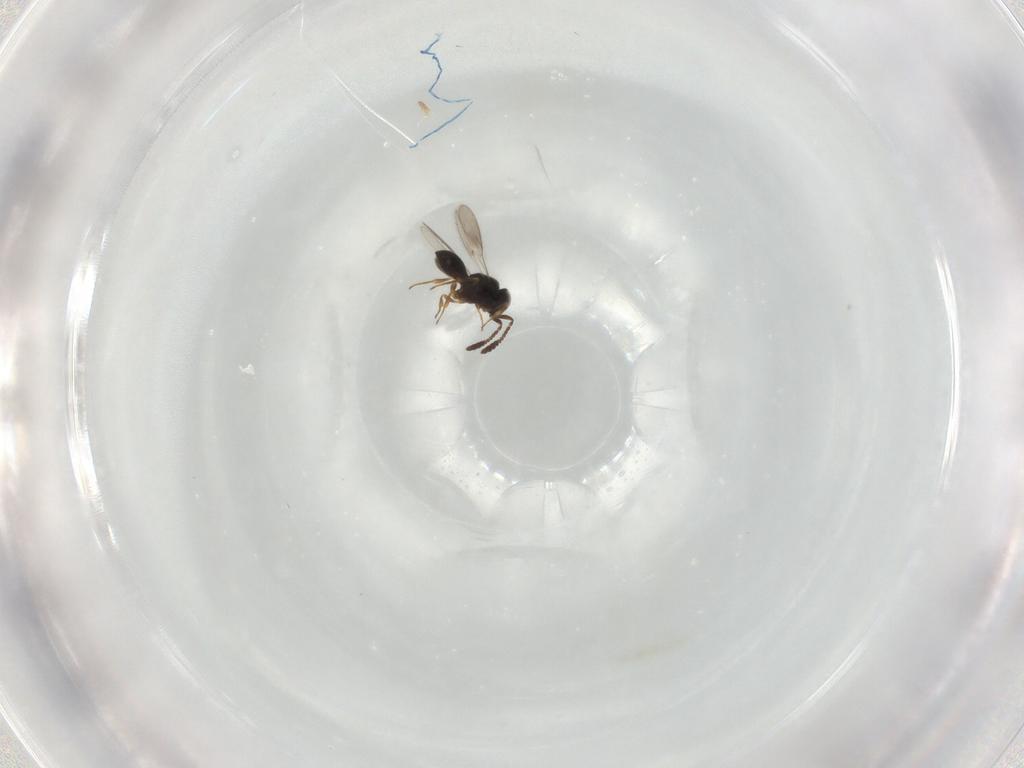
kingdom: Animalia
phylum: Arthropoda
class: Insecta
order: Hymenoptera
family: Scelionidae
